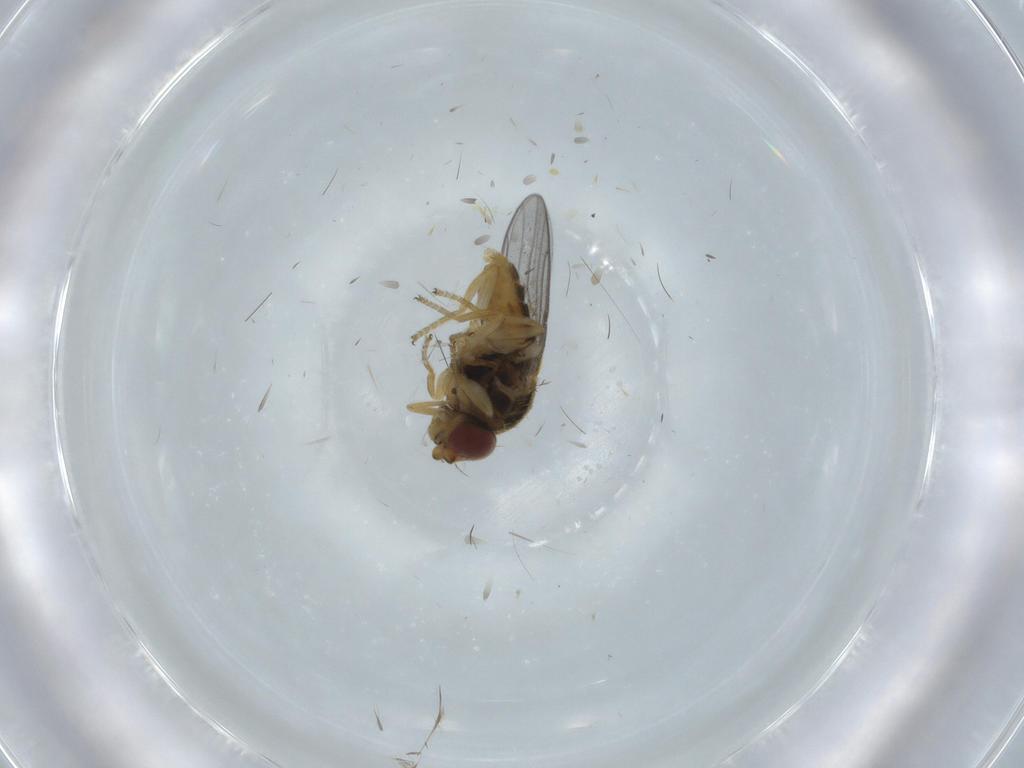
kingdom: Animalia
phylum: Arthropoda
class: Insecta
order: Diptera
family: Chloropidae
